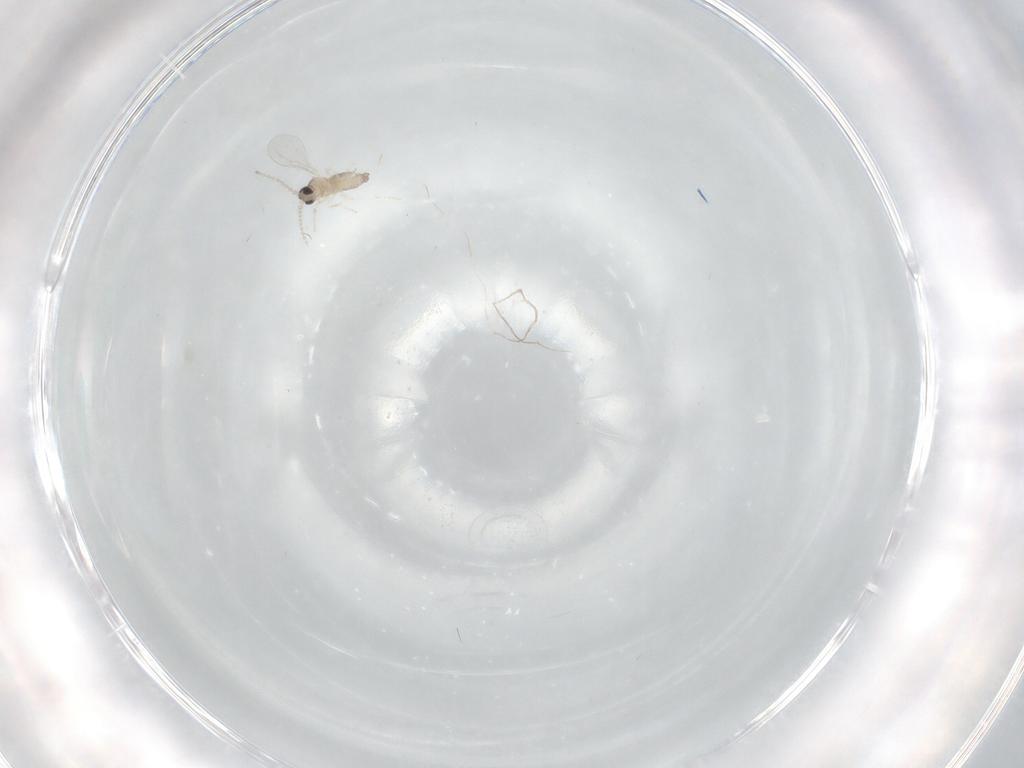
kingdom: Animalia
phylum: Arthropoda
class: Insecta
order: Diptera
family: Cecidomyiidae
